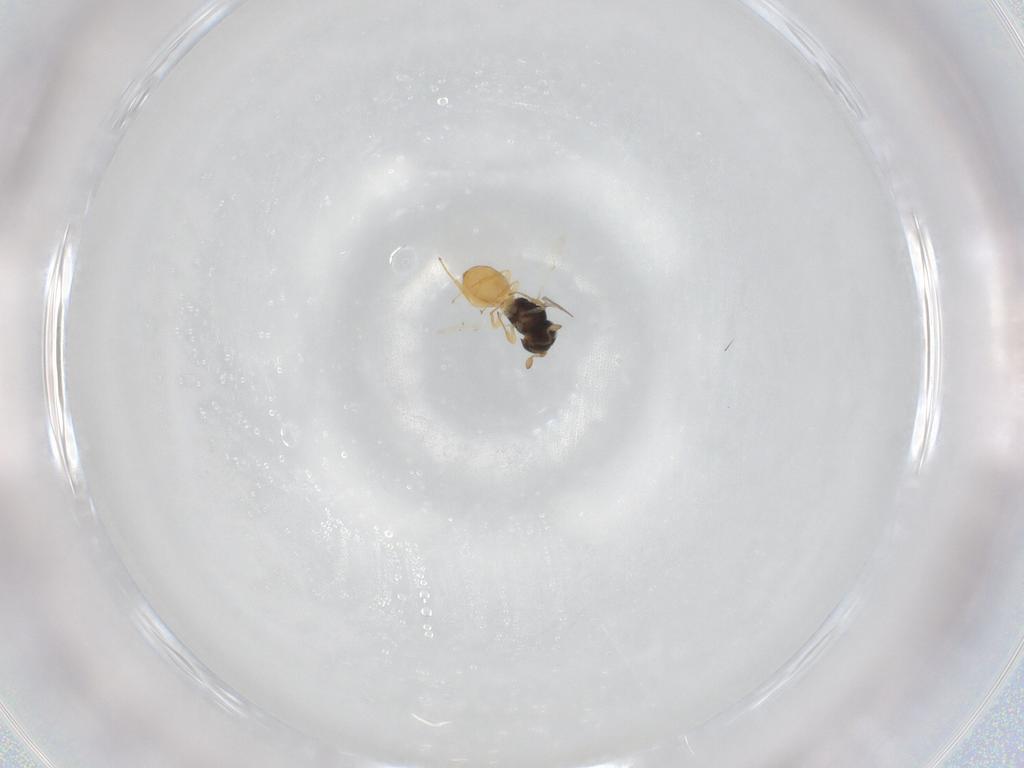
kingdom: Animalia
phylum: Arthropoda
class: Insecta
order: Hymenoptera
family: Scelionidae
